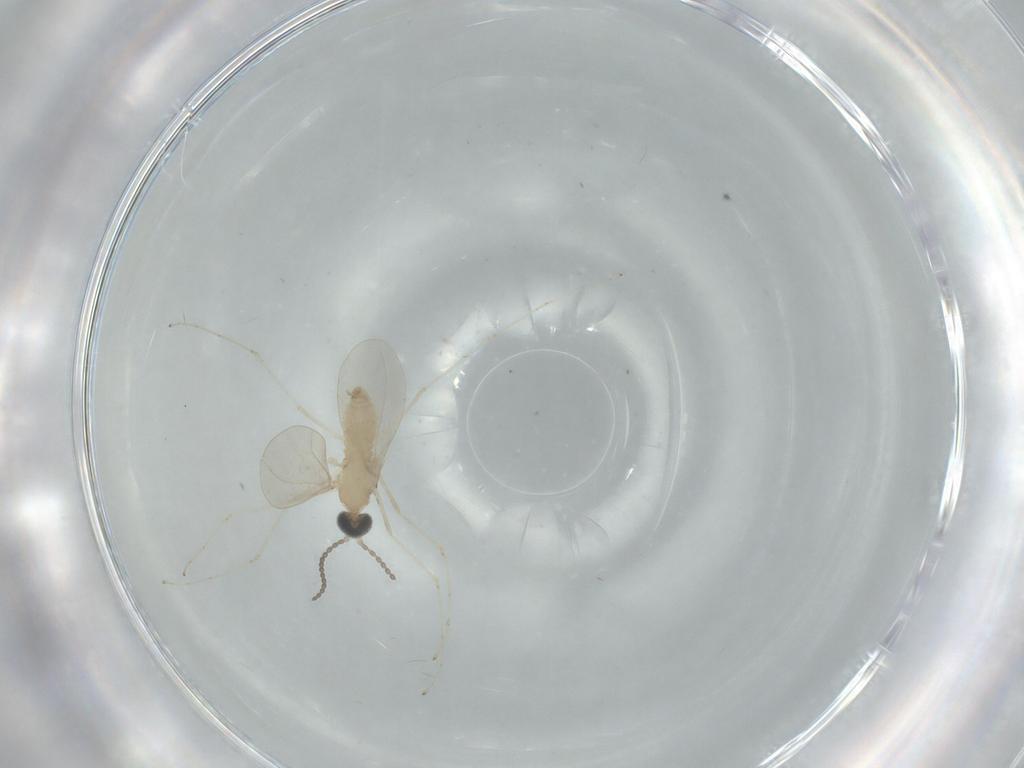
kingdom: Animalia
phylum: Arthropoda
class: Insecta
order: Diptera
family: Cecidomyiidae
